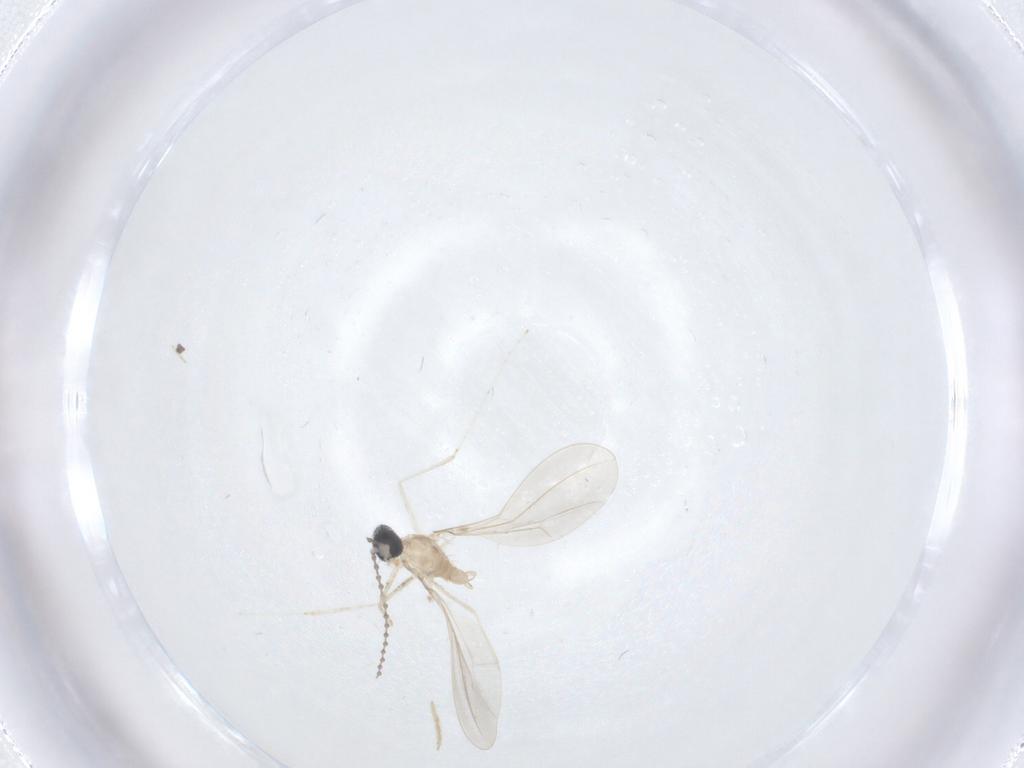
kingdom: Animalia
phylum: Arthropoda
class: Insecta
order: Diptera
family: Cecidomyiidae
